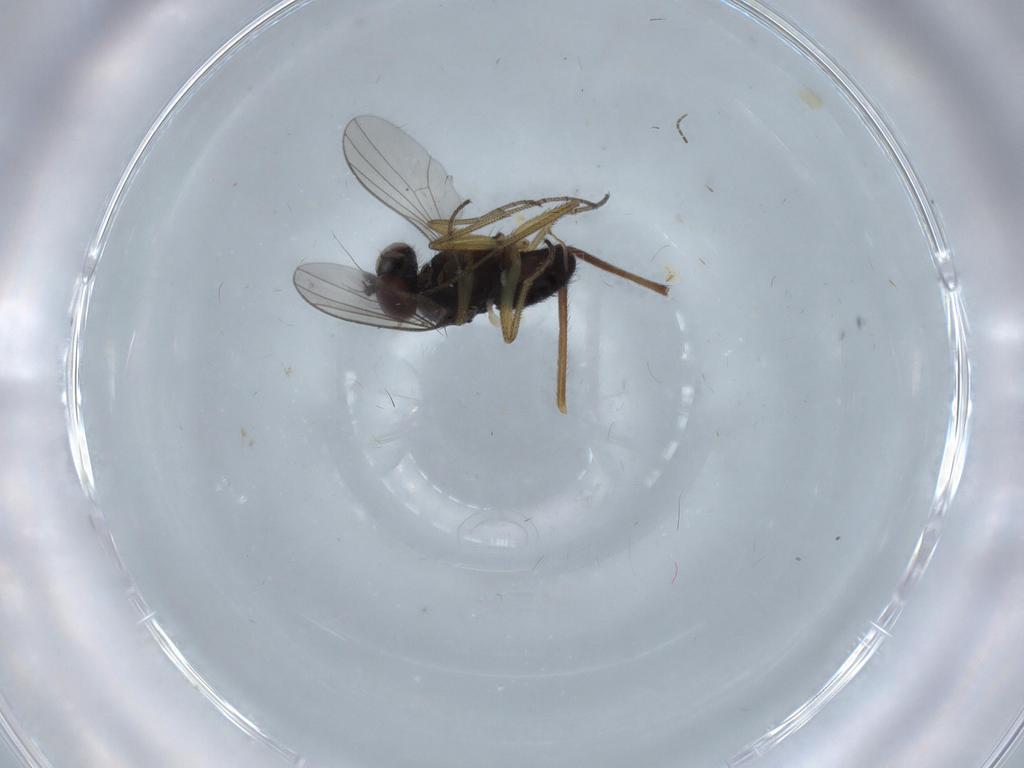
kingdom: Animalia
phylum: Arthropoda
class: Insecta
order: Diptera
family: Dolichopodidae
